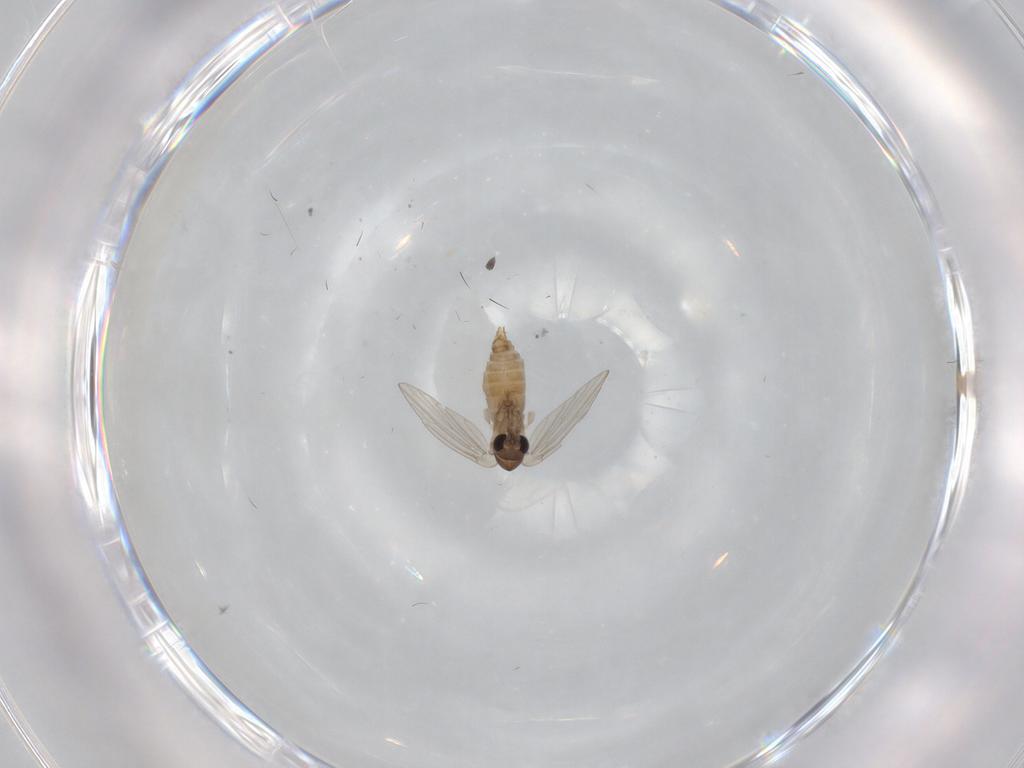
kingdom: Animalia
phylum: Arthropoda
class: Insecta
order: Diptera
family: Psychodidae
